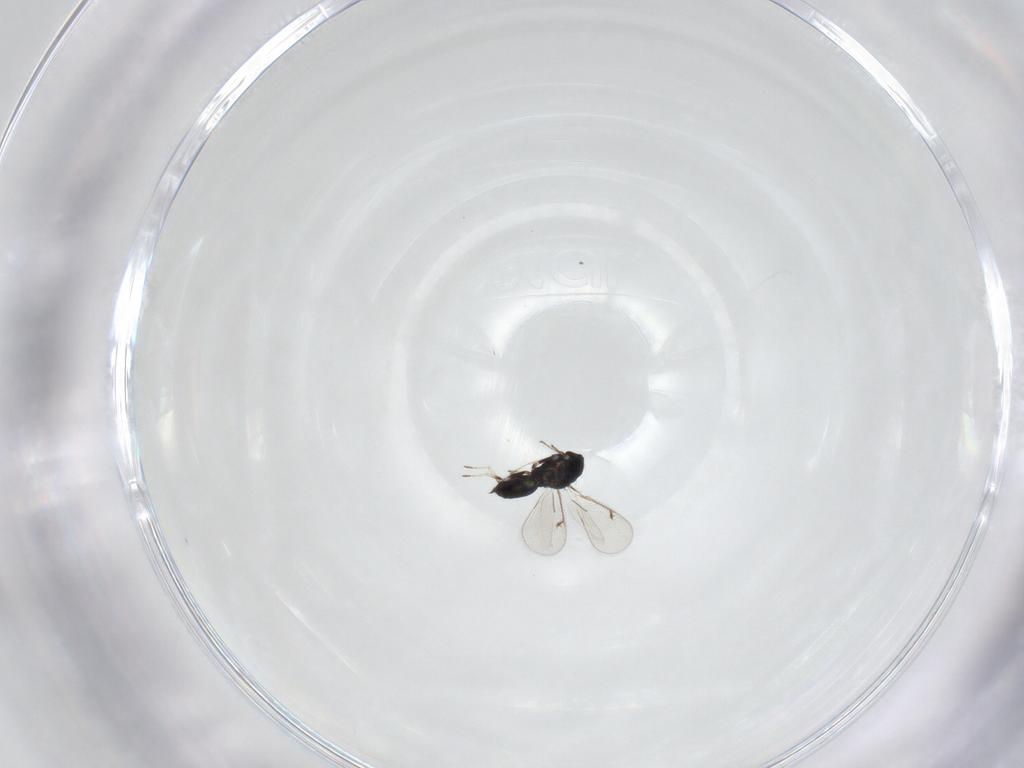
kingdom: Animalia
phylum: Arthropoda
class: Insecta
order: Hymenoptera
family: Eulophidae
